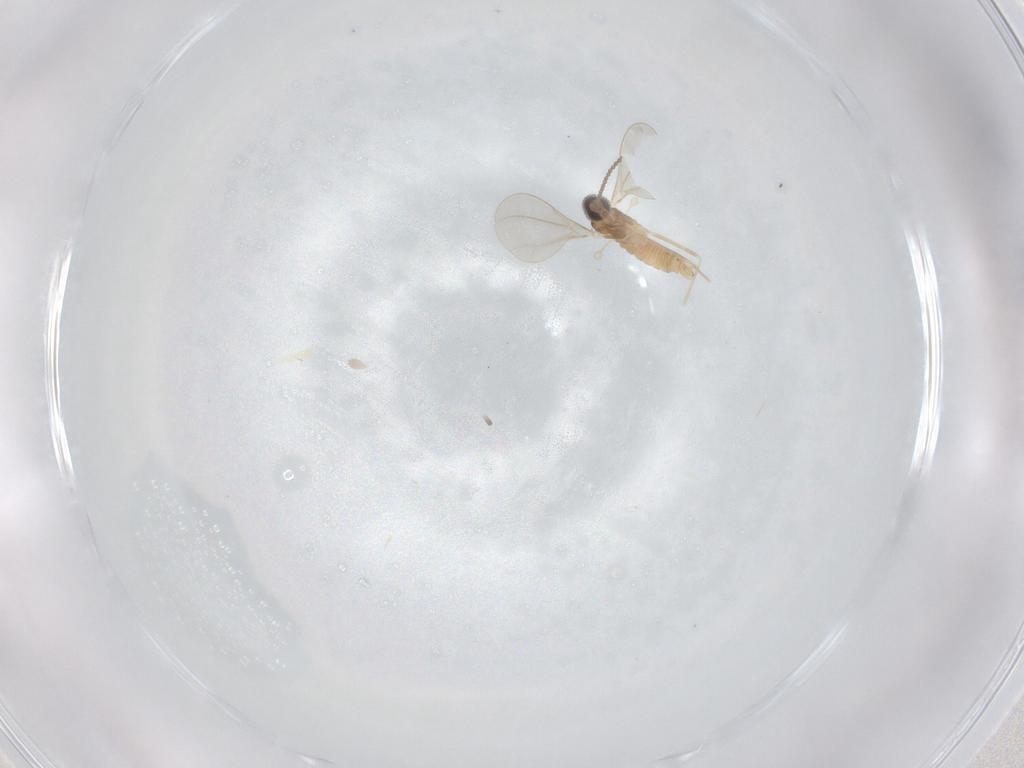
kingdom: Animalia
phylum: Arthropoda
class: Insecta
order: Diptera
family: Cecidomyiidae
